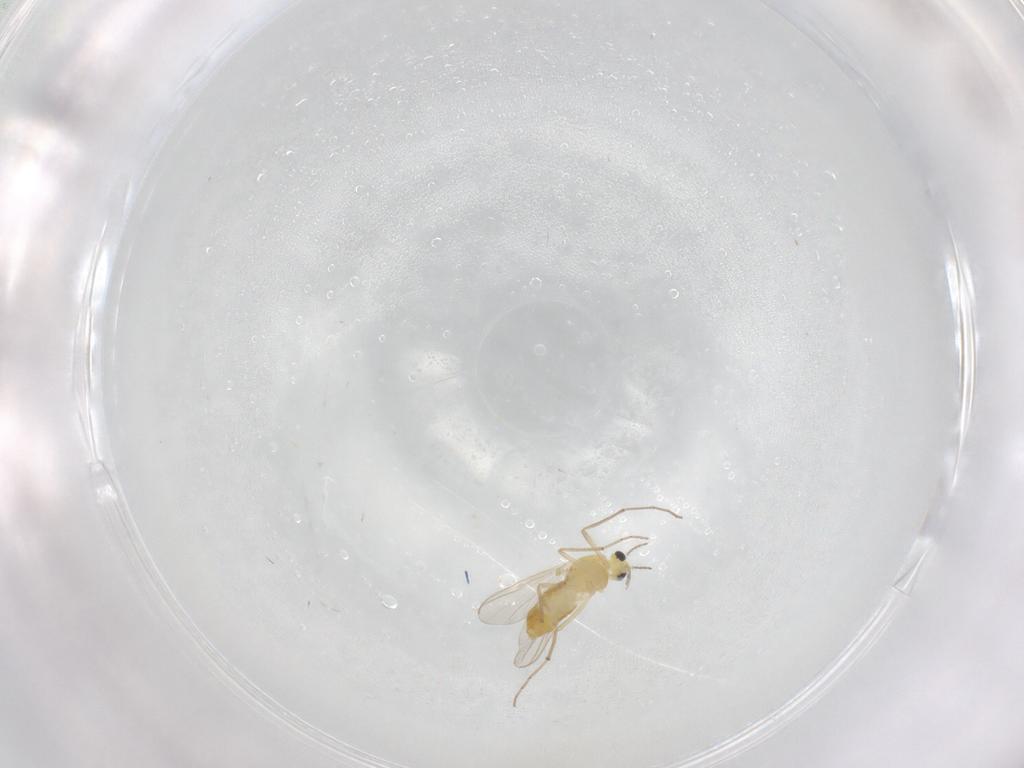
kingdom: Animalia
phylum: Arthropoda
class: Insecta
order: Diptera
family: Chironomidae
